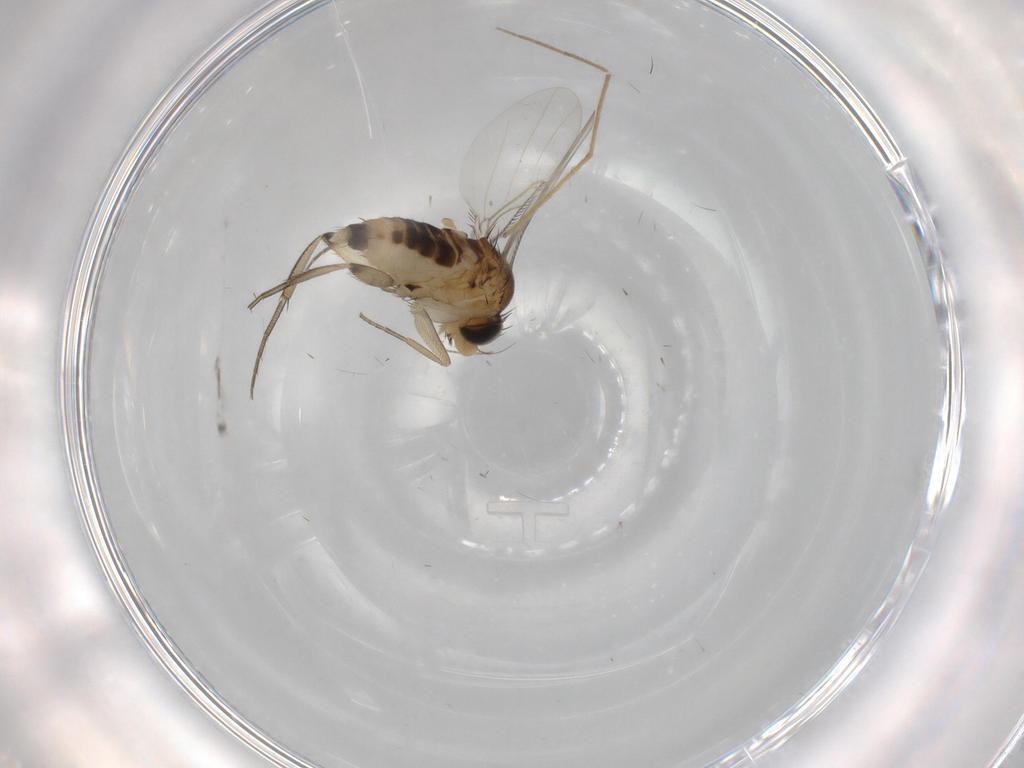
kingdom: Animalia
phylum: Arthropoda
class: Insecta
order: Diptera
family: Phoridae
